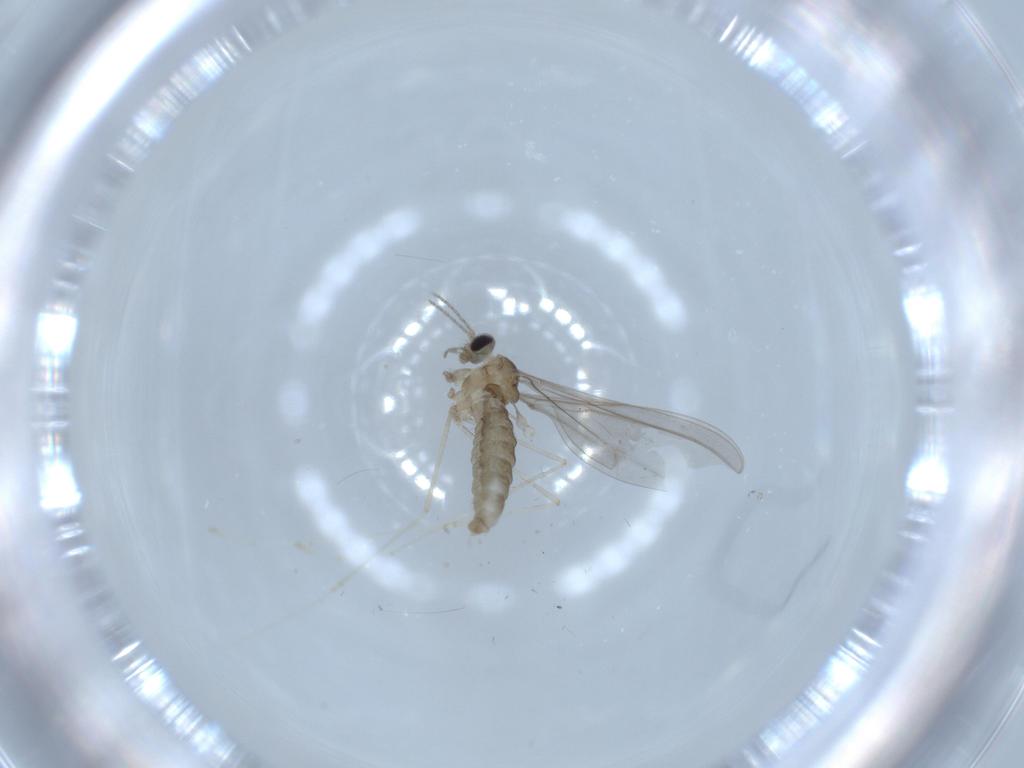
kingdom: Animalia
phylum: Arthropoda
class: Insecta
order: Diptera
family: Cecidomyiidae
